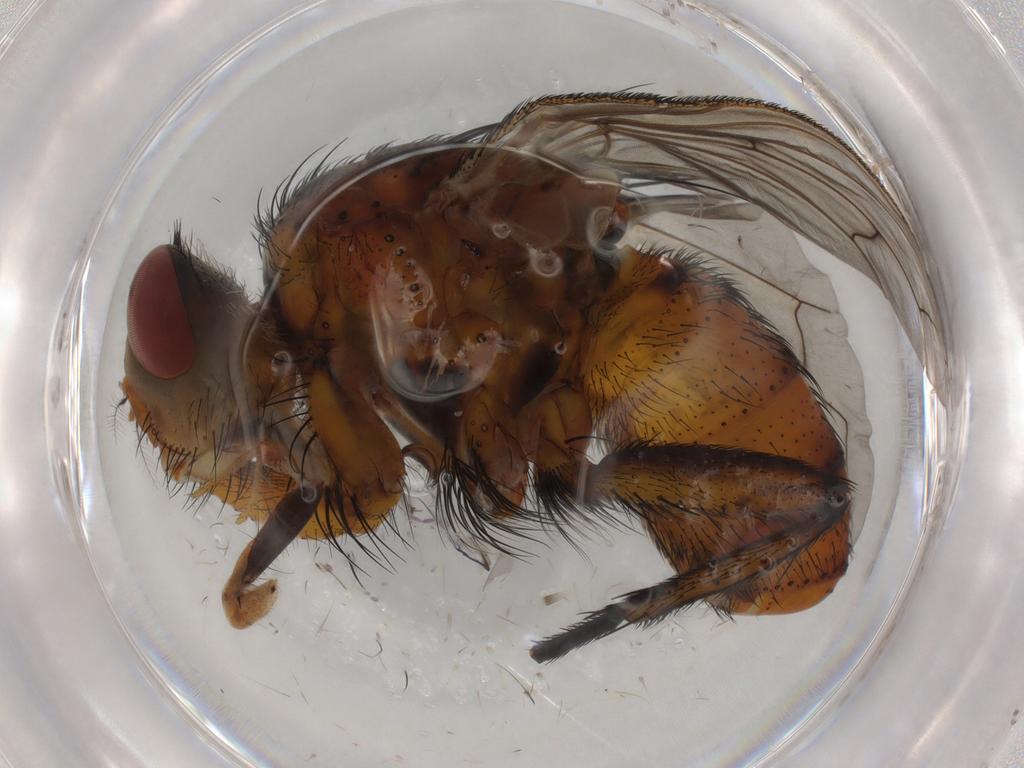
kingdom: Animalia
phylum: Arthropoda
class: Insecta
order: Diptera
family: Tachinidae
